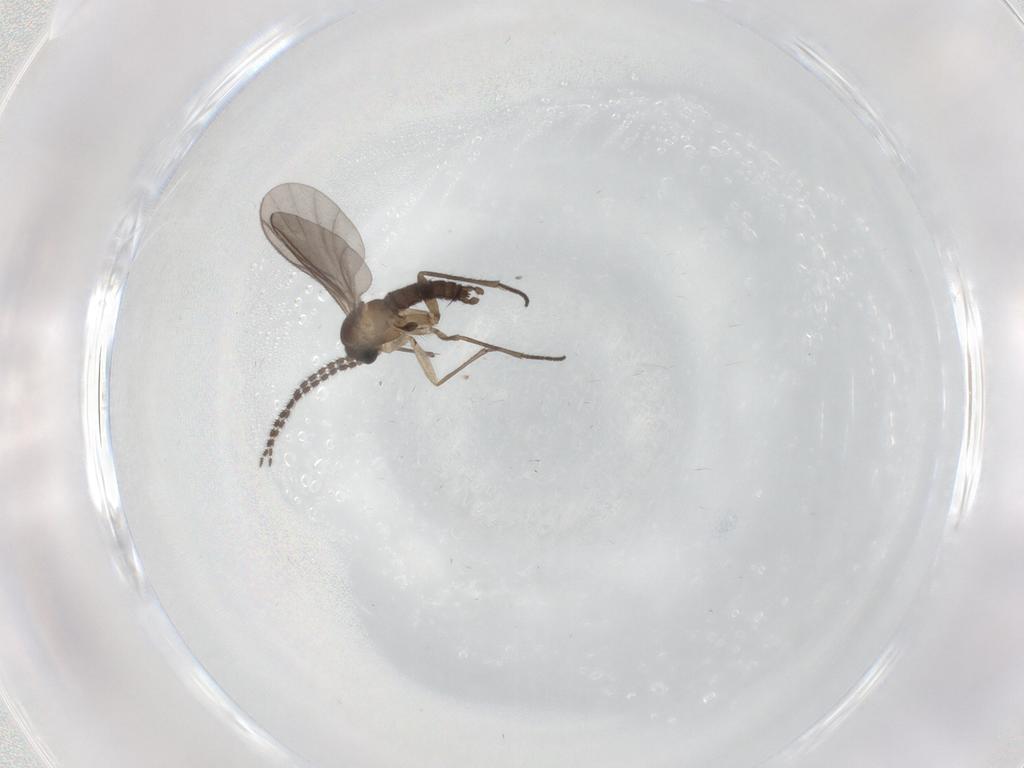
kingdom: Animalia
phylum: Arthropoda
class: Insecta
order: Diptera
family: Sciaridae
